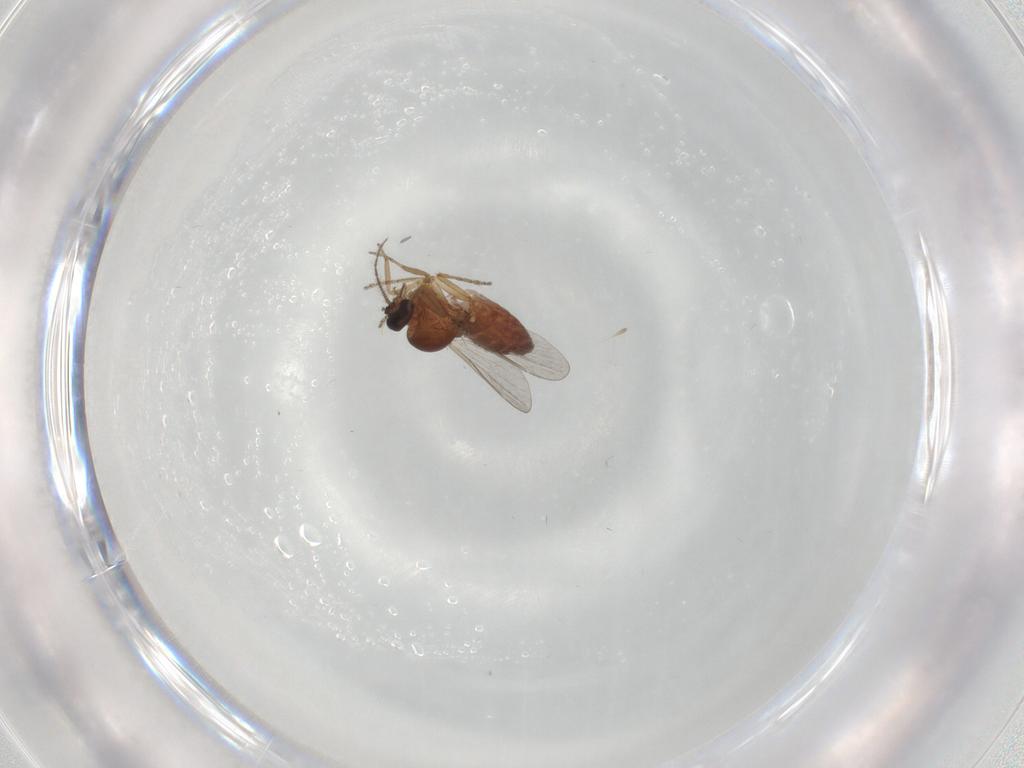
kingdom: Animalia
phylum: Arthropoda
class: Insecta
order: Diptera
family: Ceratopogonidae
